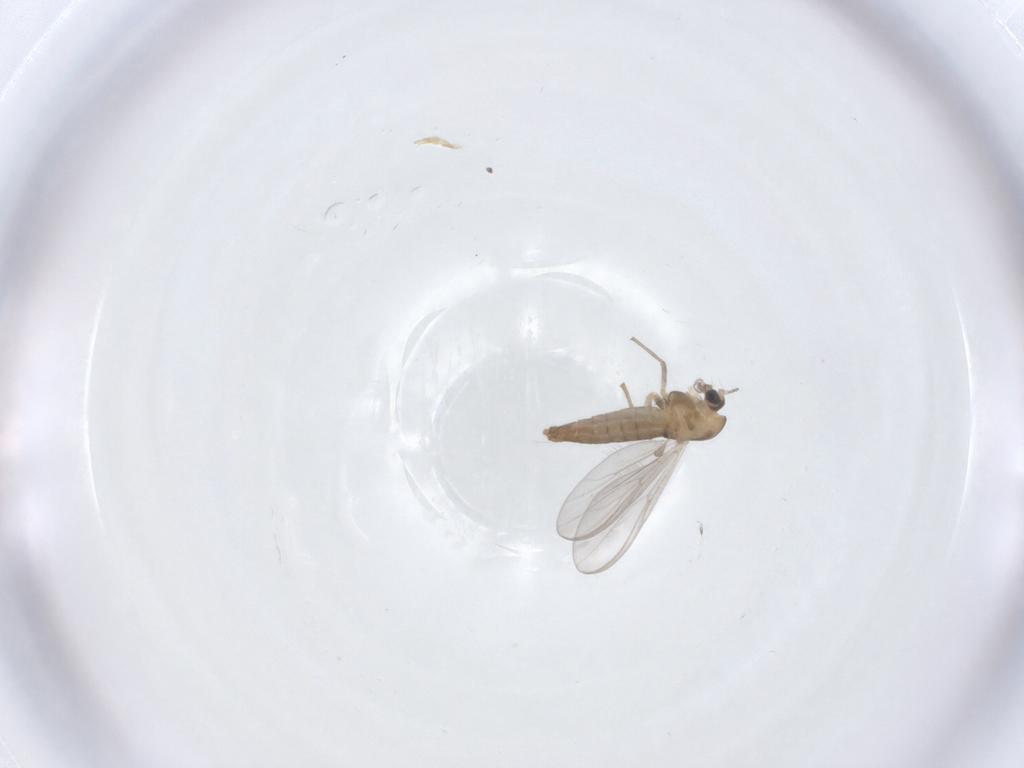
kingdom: Animalia
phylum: Arthropoda
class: Insecta
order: Diptera
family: Chironomidae
